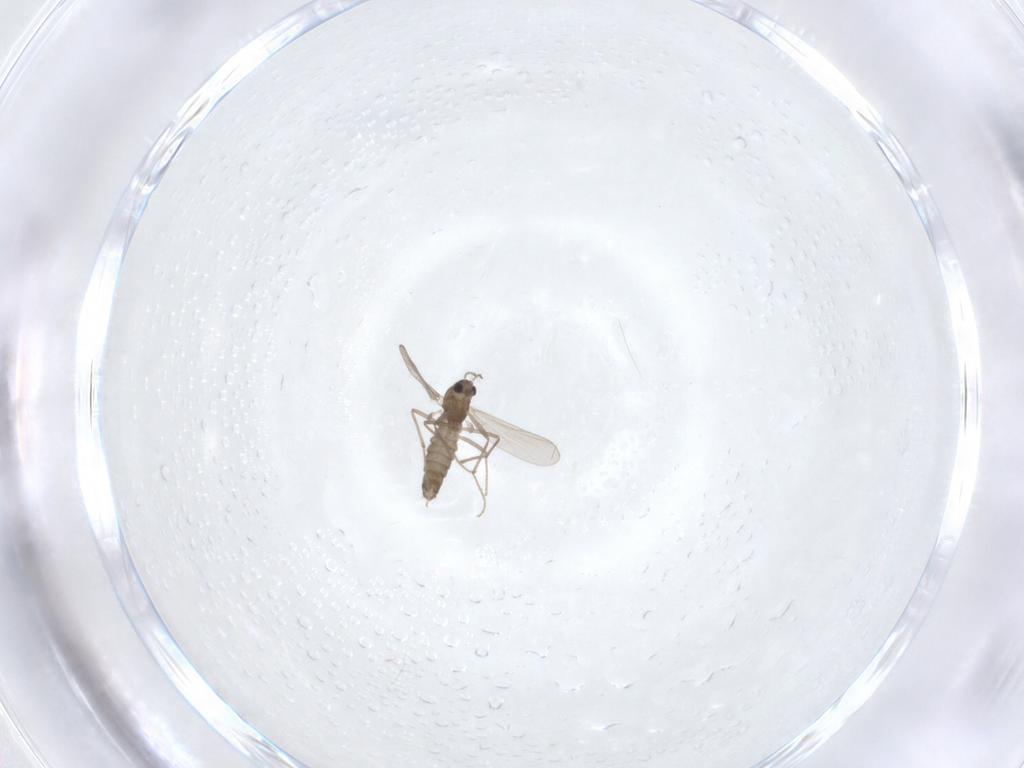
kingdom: Animalia
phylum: Arthropoda
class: Insecta
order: Diptera
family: Chironomidae
